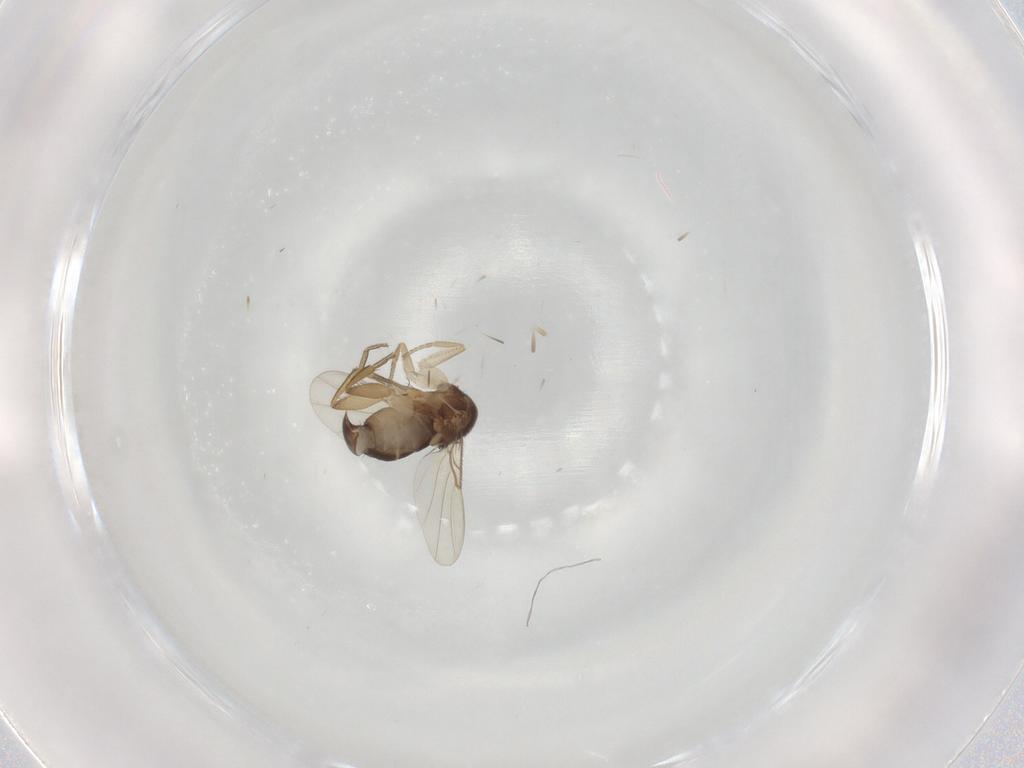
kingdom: Animalia
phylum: Arthropoda
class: Insecta
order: Diptera
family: Phoridae
